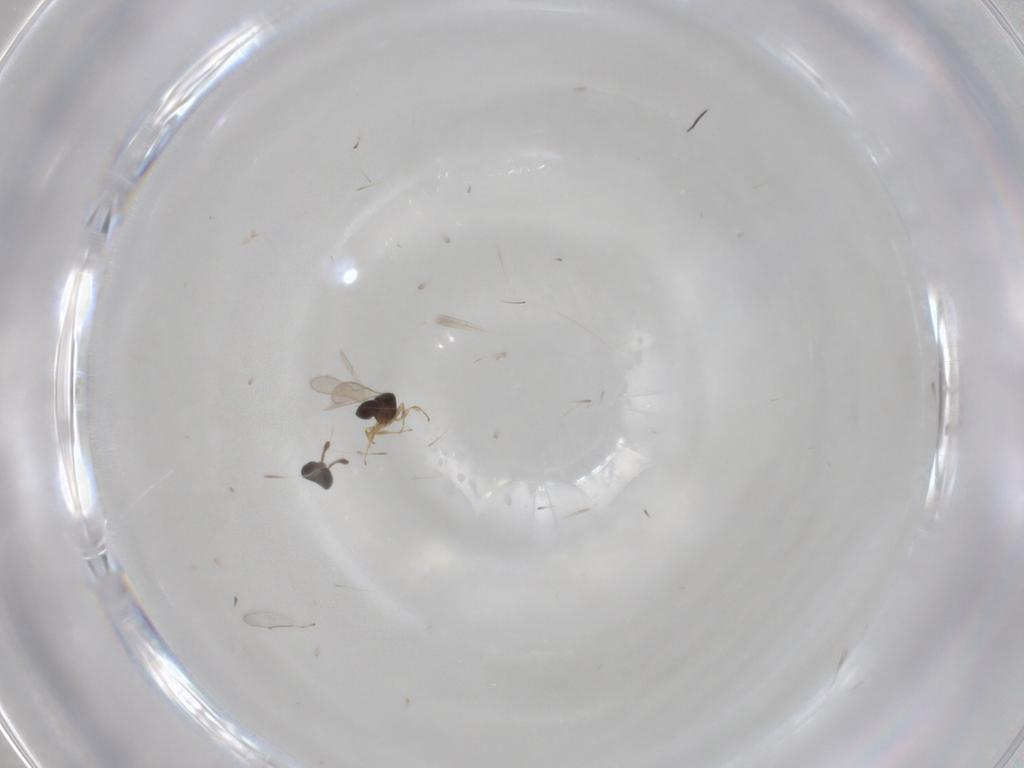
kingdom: Animalia
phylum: Arthropoda
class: Insecta
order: Hymenoptera
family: Scelionidae
